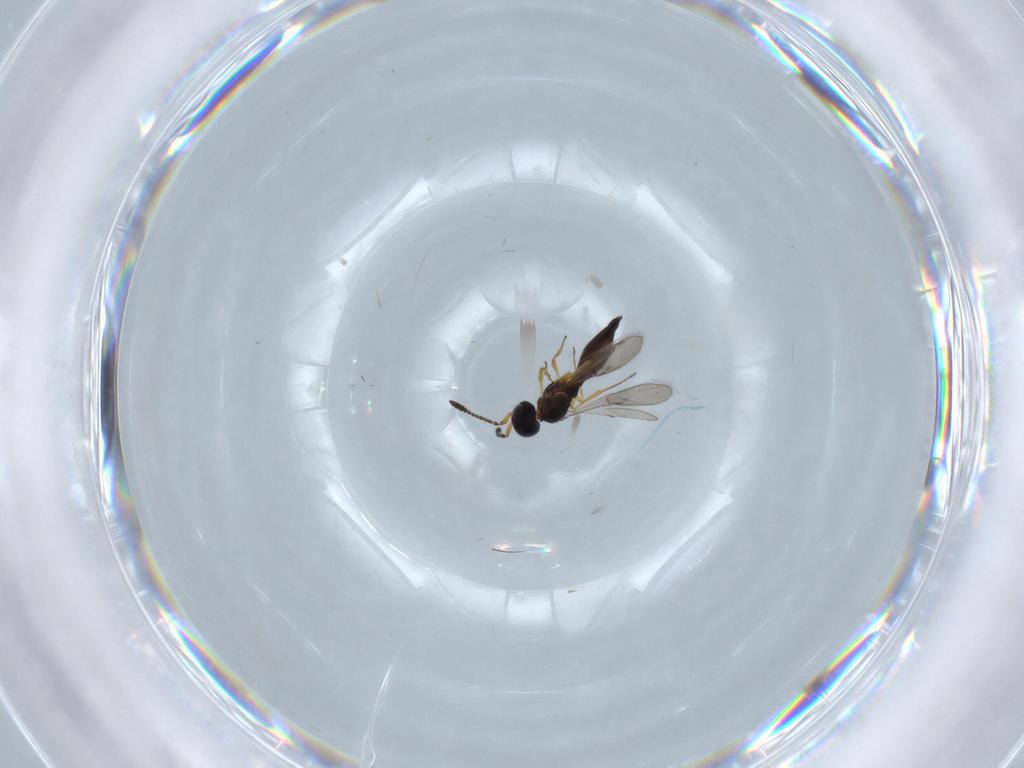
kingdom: Animalia
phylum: Arthropoda
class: Insecta
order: Hymenoptera
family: Scelionidae
